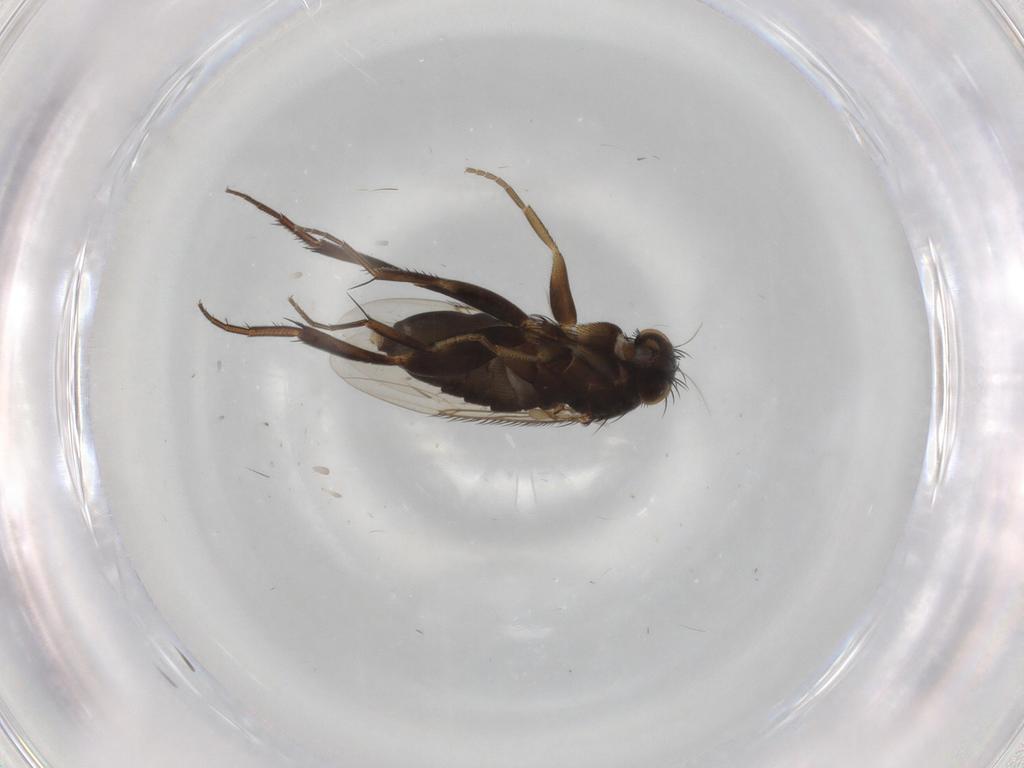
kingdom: Animalia
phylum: Arthropoda
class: Insecta
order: Diptera
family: Phoridae
